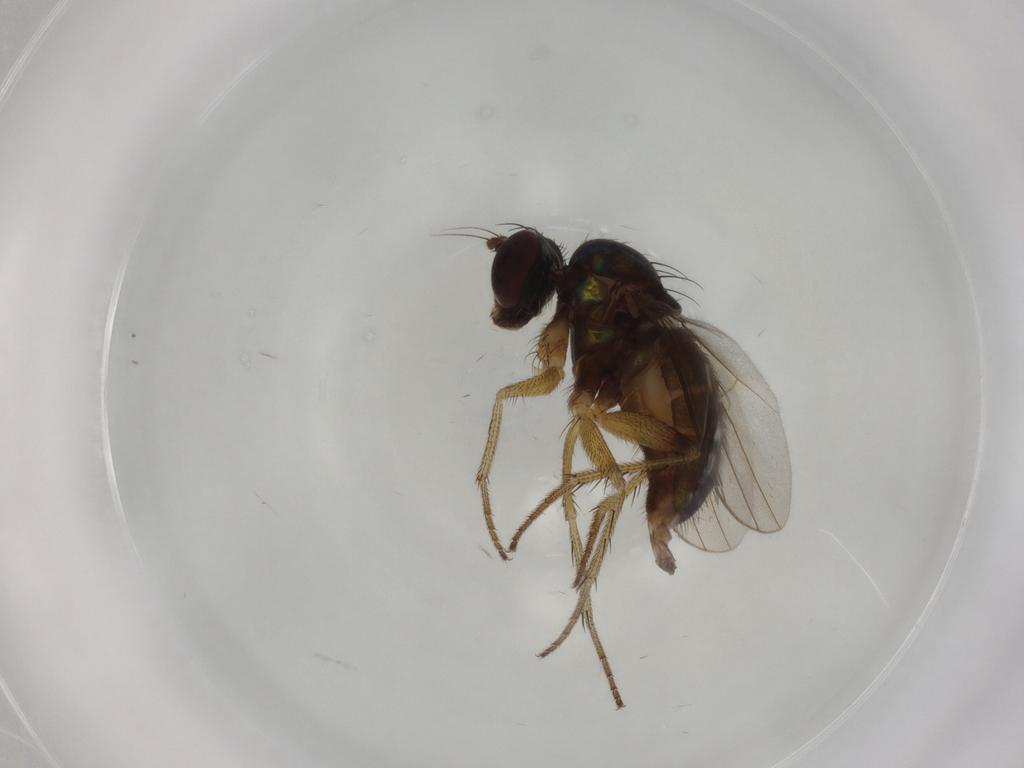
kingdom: Animalia
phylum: Arthropoda
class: Insecta
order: Diptera
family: Dolichopodidae
